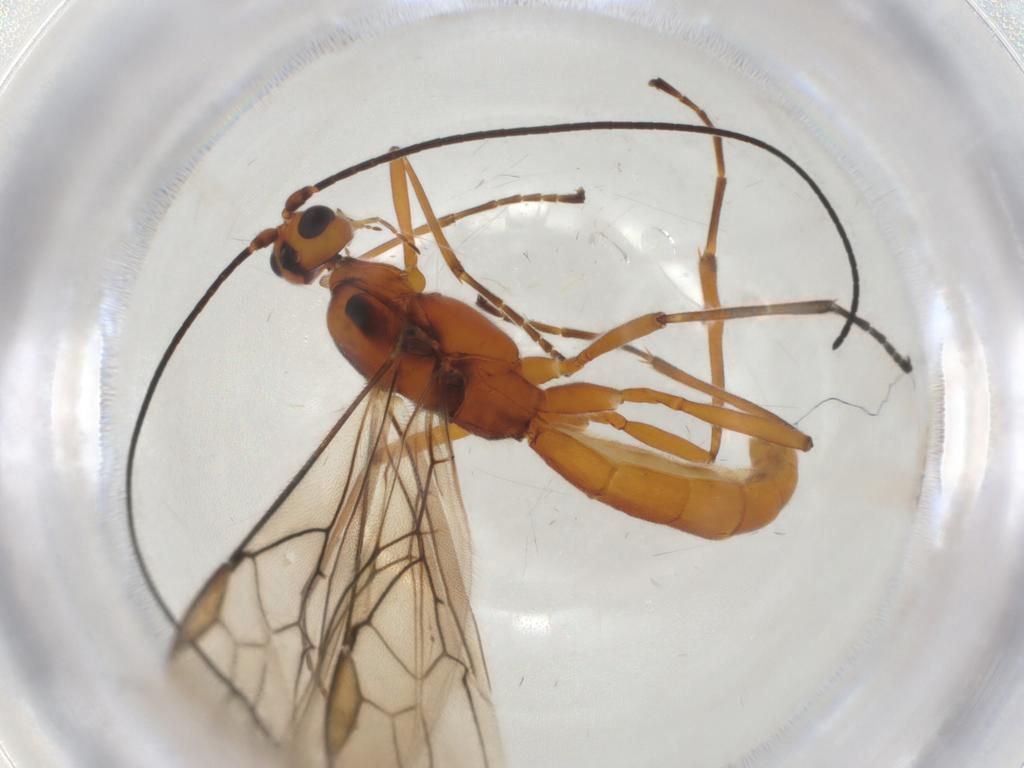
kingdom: Animalia
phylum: Arthropoda
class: Insecta
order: Hymenoptera
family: Braconidae
